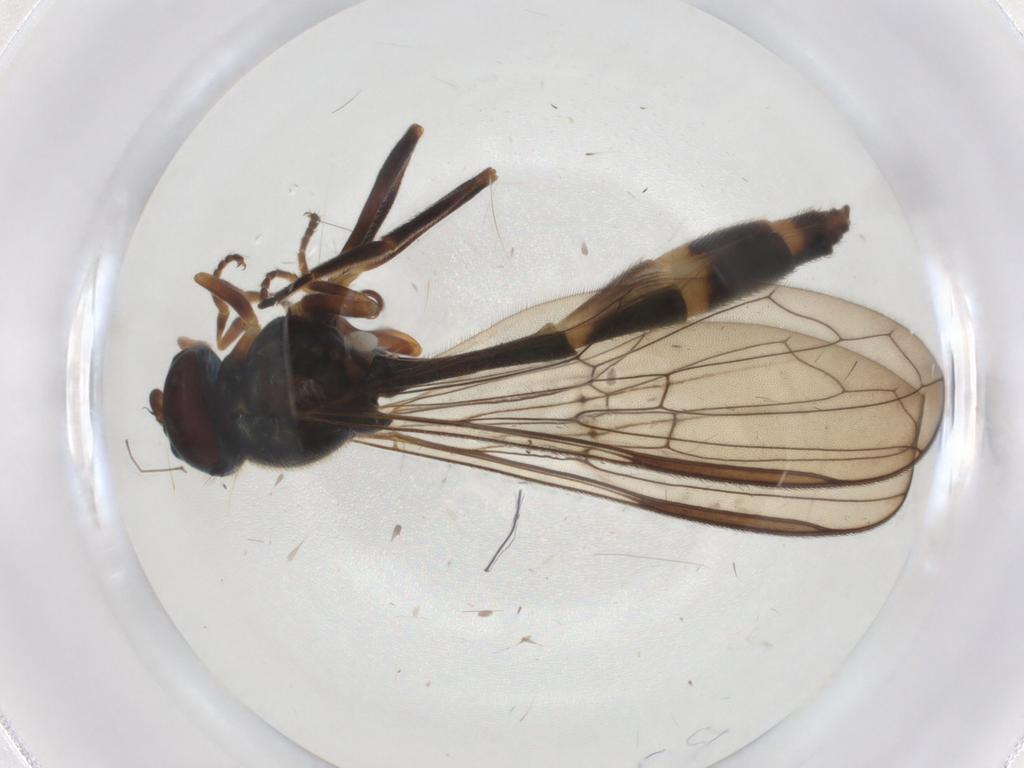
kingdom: Animalia
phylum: Arthropoda
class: Insecta
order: Diptera
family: Syrphidae
